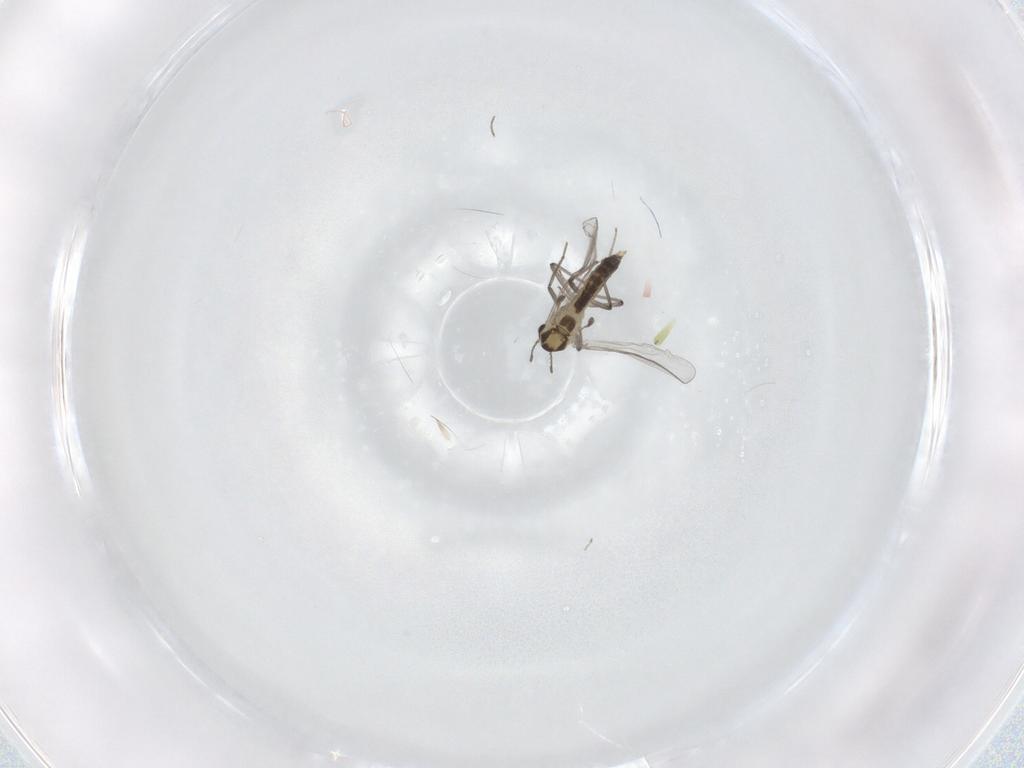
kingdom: Animalia
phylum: Arthropoda
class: Insecta
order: Diptera
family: Chironomidae
